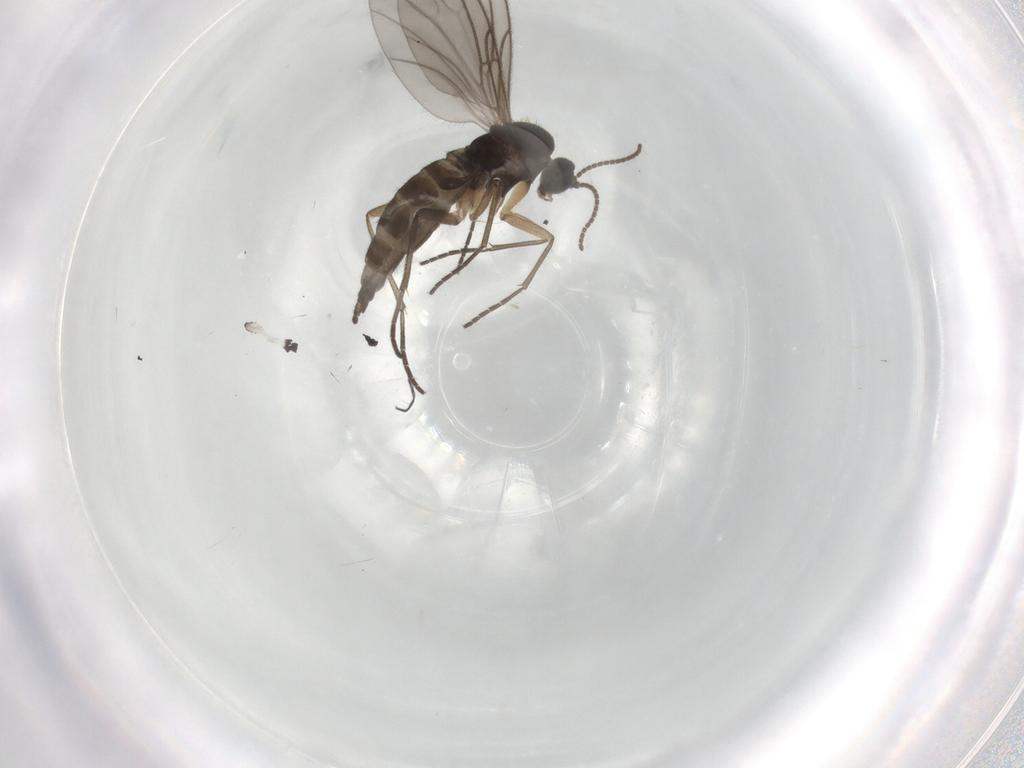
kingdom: Animalia
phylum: Arthropoda
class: Insecta
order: Diptera
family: Sciaridae
